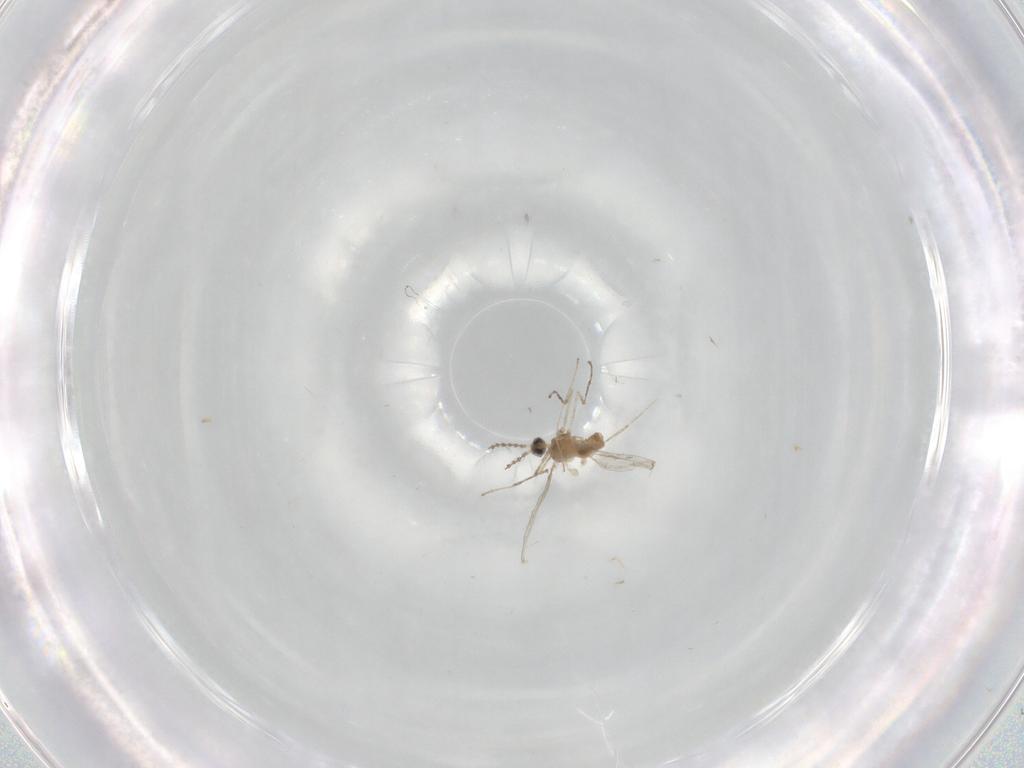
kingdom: Animalia
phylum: Arthropoda
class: Insecta
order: Diptera
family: Cecidomyiidae
